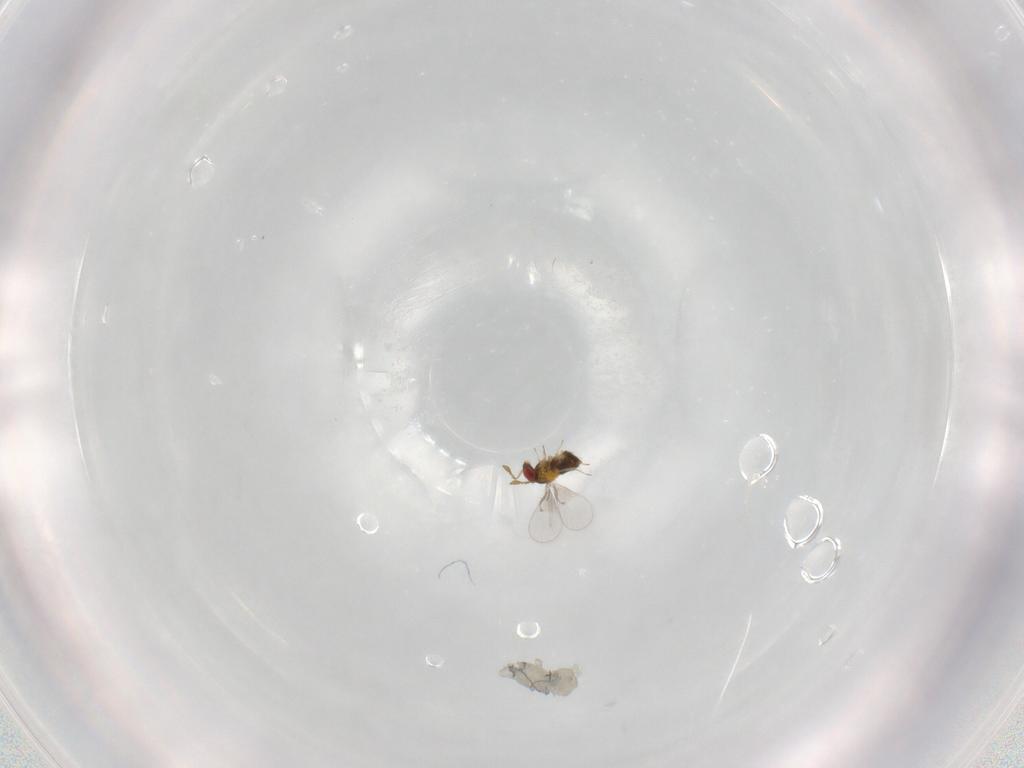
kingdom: Animalia
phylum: Arthropoda
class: Insecta
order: Hymenoptera
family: Trichogrammatidae
